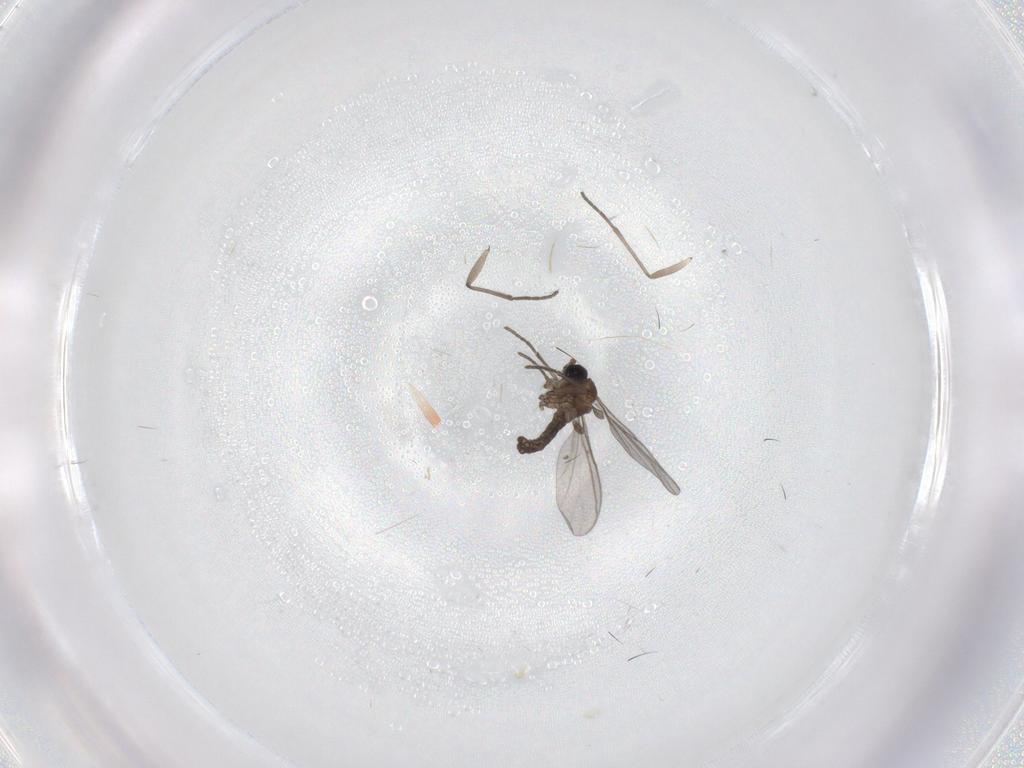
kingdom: Animalia
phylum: Arthropoda
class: Insecta
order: Diptera
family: Sciaridae
